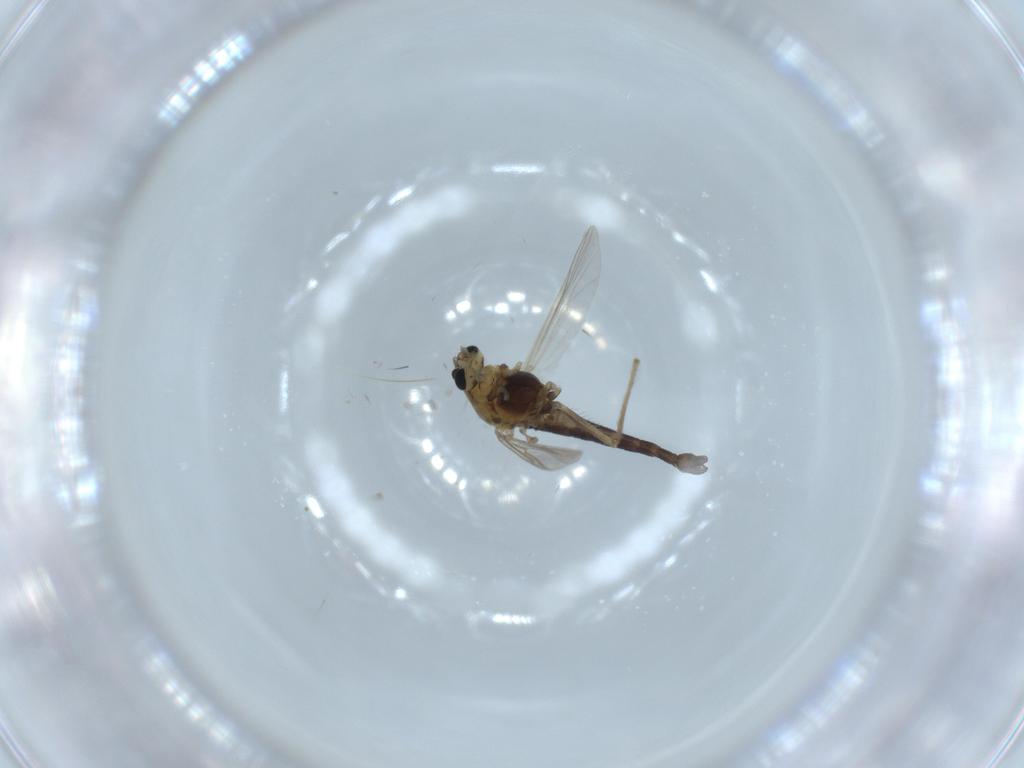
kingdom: Animalia
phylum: Arthropoda
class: Insecta
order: Diptera
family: Chironomidae
